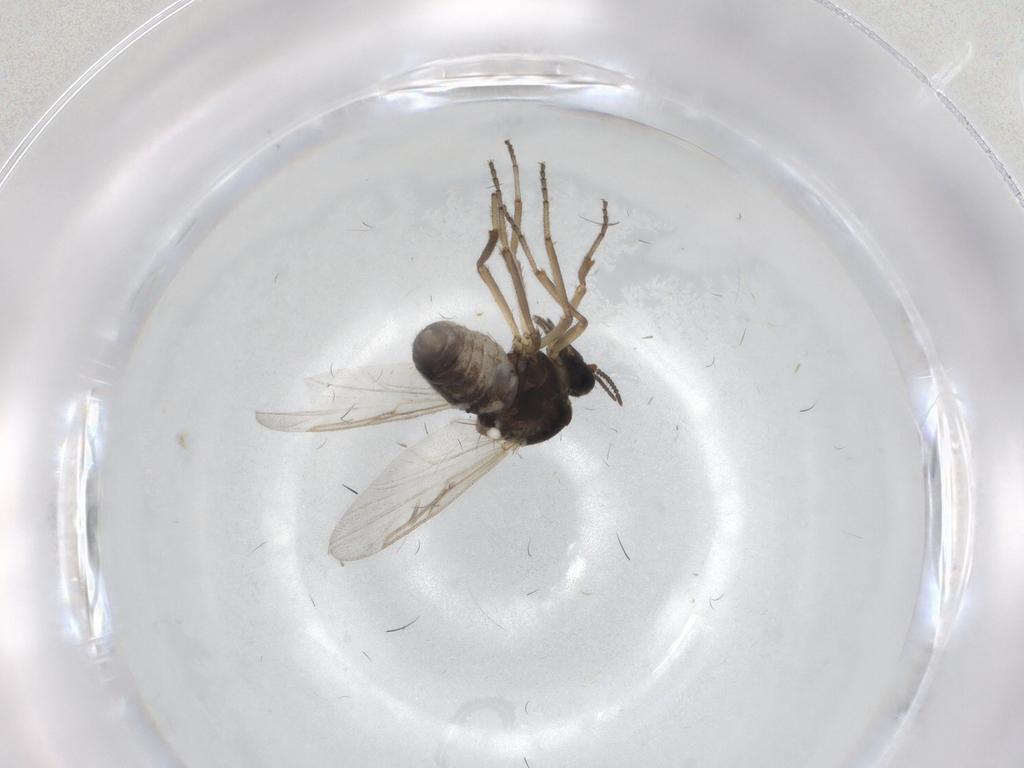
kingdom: Animalia
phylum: Arthropoda
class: Insecta
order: Diptera
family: Ceratopogonidae
